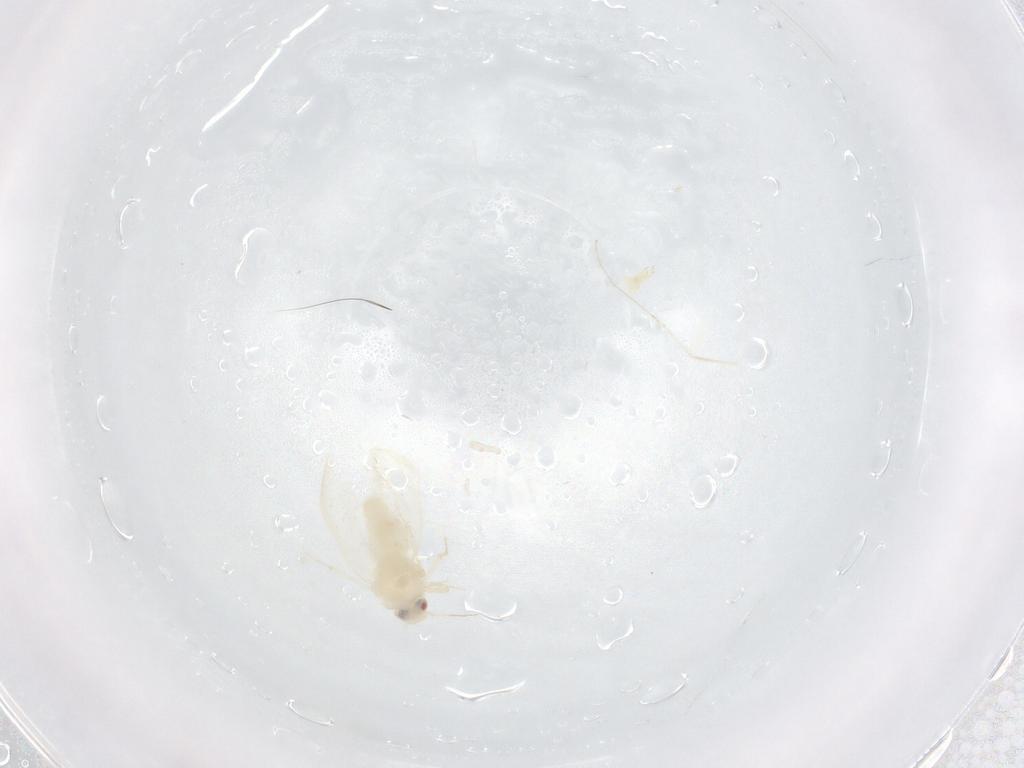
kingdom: Animalia
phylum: Arthropoda
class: Insecta
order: Hemiptera
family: Aleyrodidae
